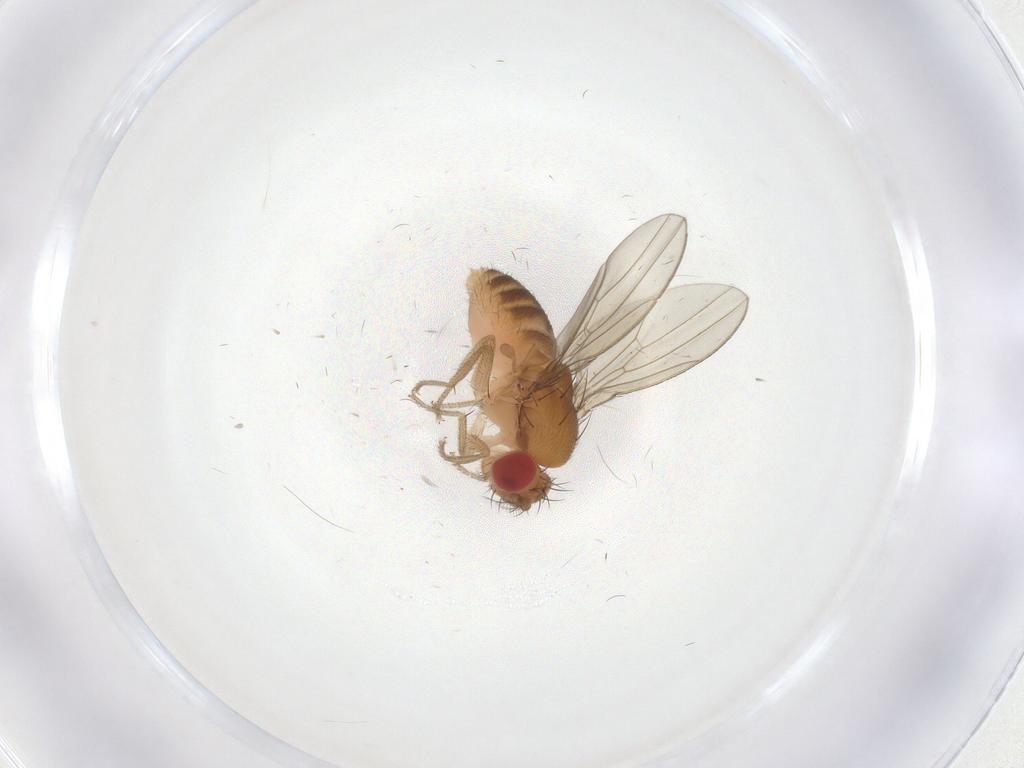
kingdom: Animalia
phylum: Arthropoda
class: Insecta
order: Diptera
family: Drosophilidae
